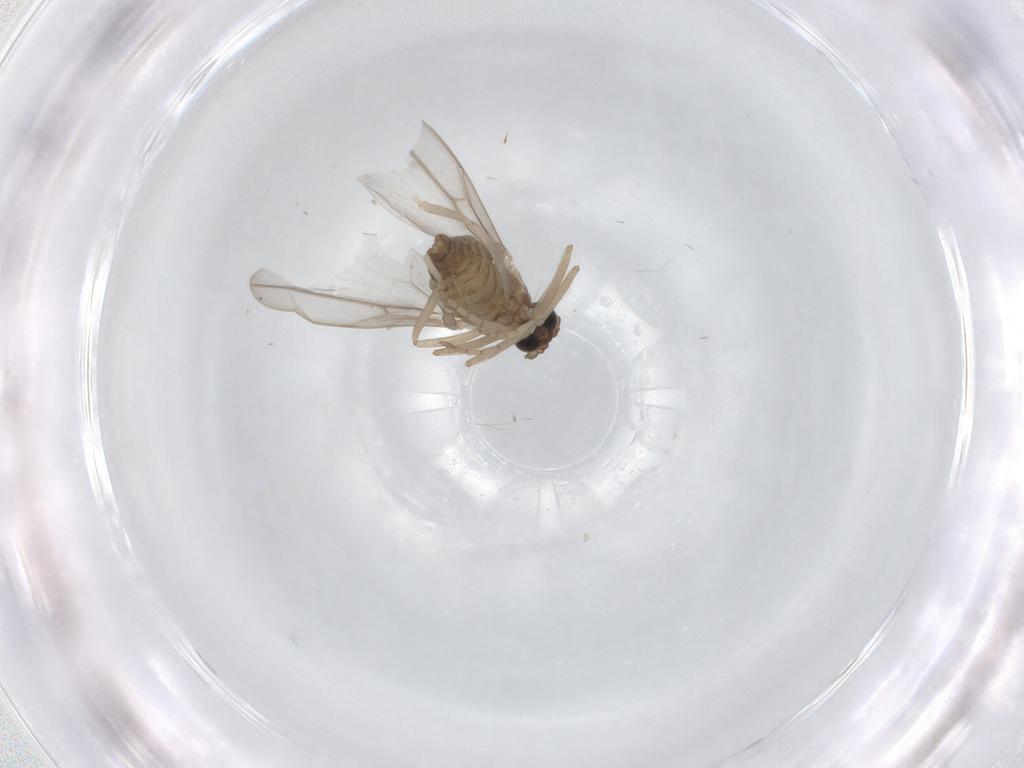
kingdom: Animalia
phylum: Arthropoda
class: Insecta
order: Diptera
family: Cecidomyiidae
